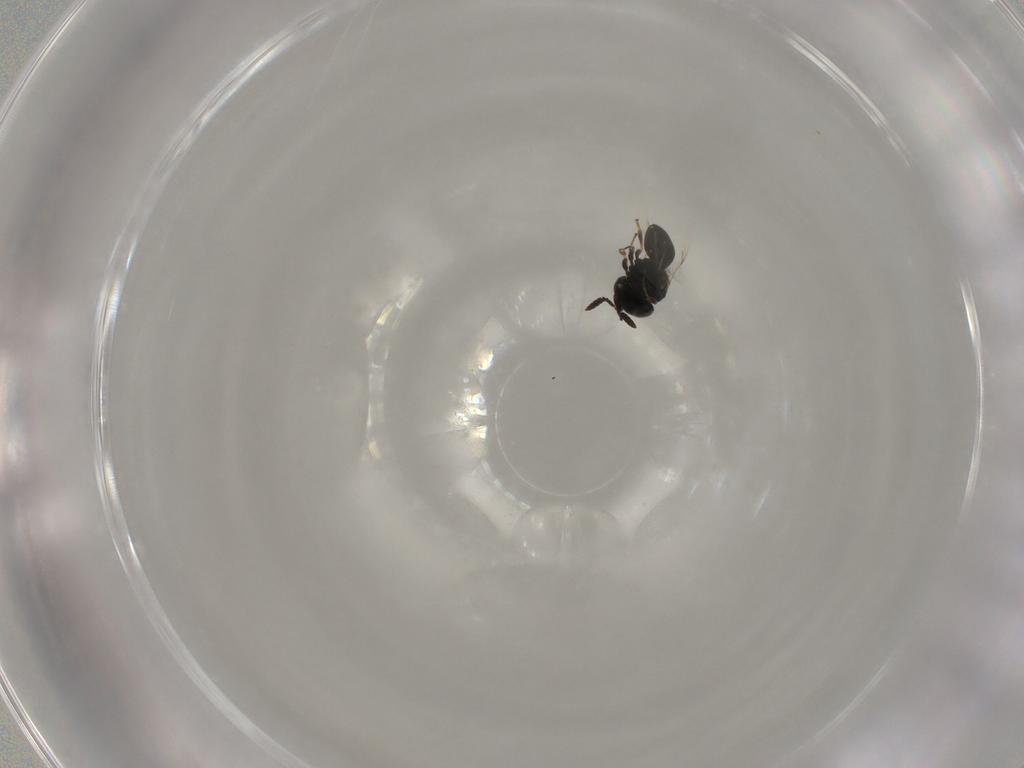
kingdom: Animalia
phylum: Arthropoda
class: Insecta
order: Hymenoptera
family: Scelionidae
